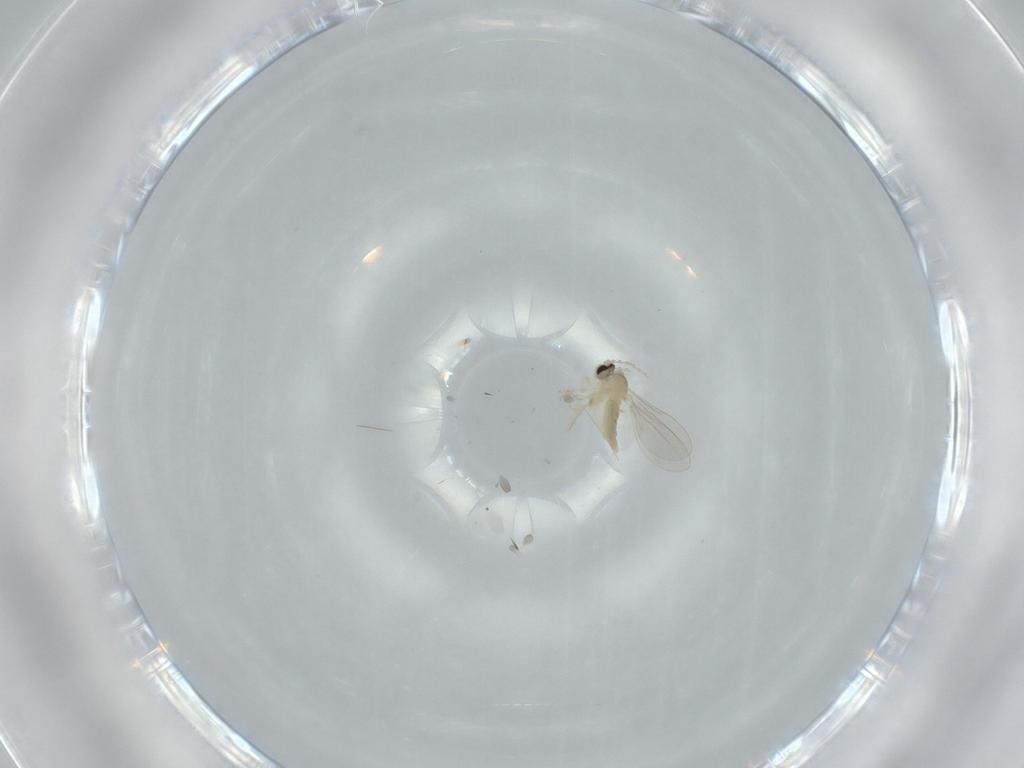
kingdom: Animalia
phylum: Arthropoda
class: Insecta
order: Diptera
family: Cecidomyiidae
